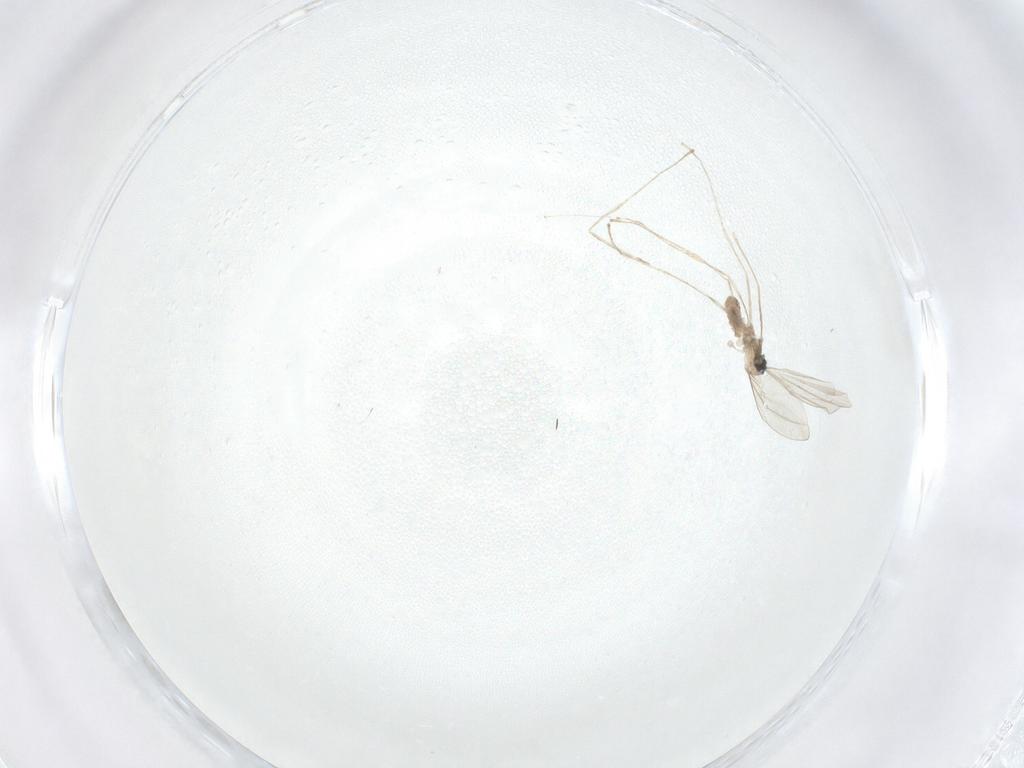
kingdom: Animalia
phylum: Arthropoda
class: Insecta
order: Diptera
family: Cecidomyiidae
